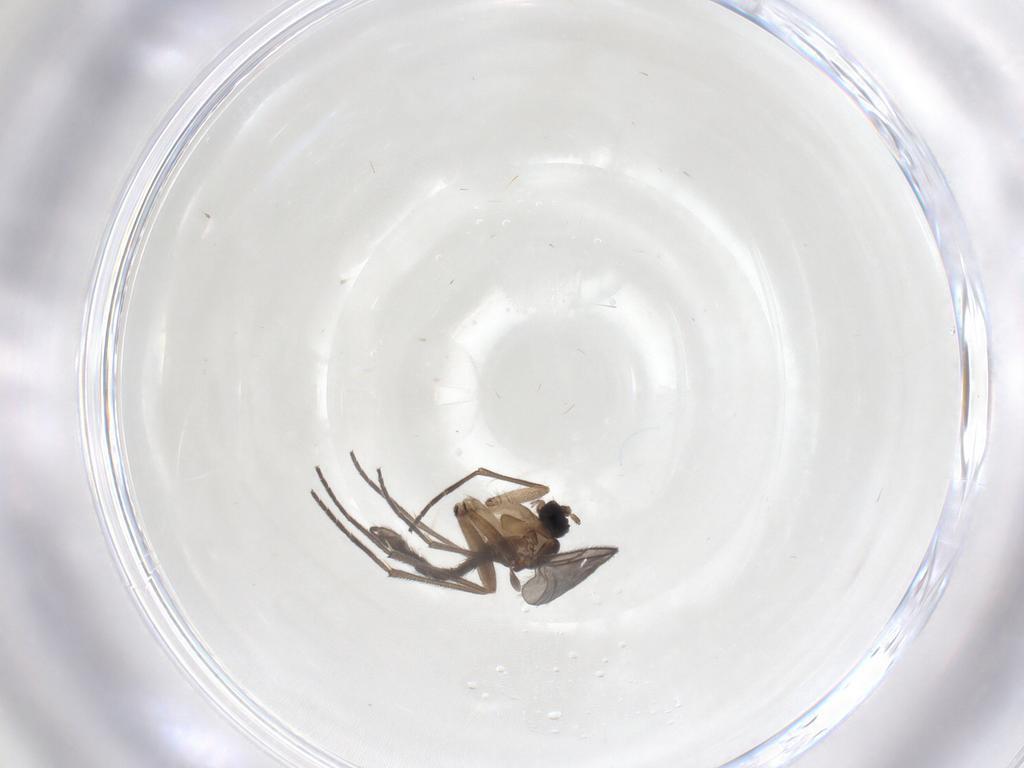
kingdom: Animalia
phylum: Arthropoda
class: Insecta
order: Diptera
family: Sciaridae
